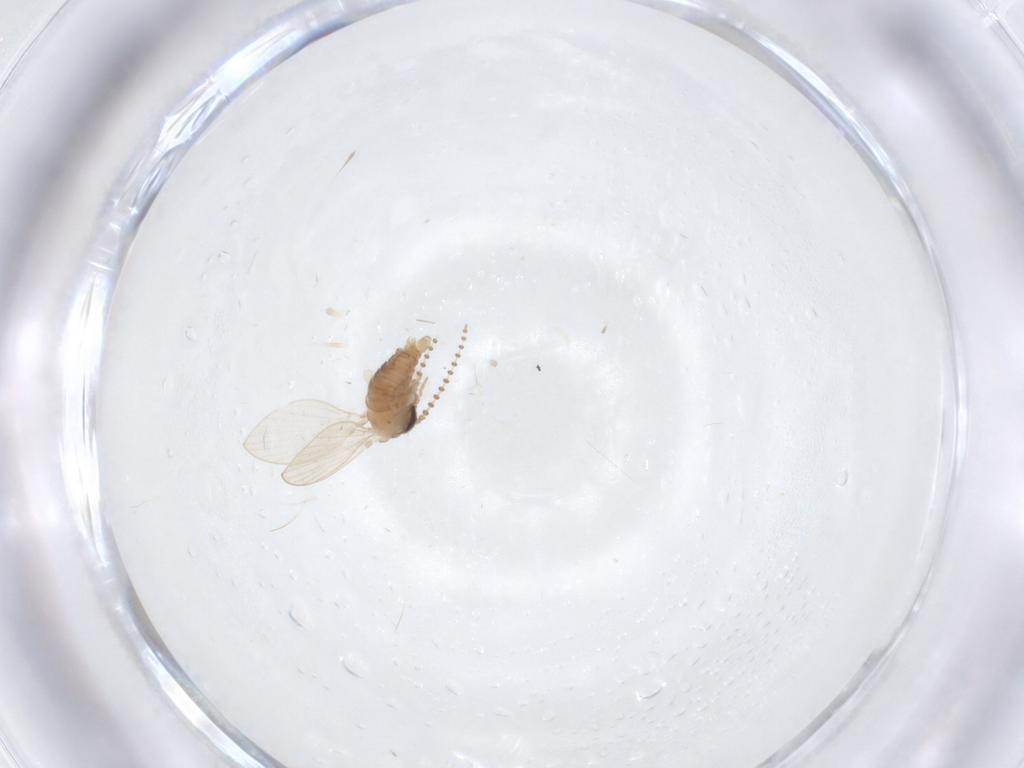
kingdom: Animalia
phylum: Arthropoda
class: Insecta
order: Diptera
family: Psychodidae
